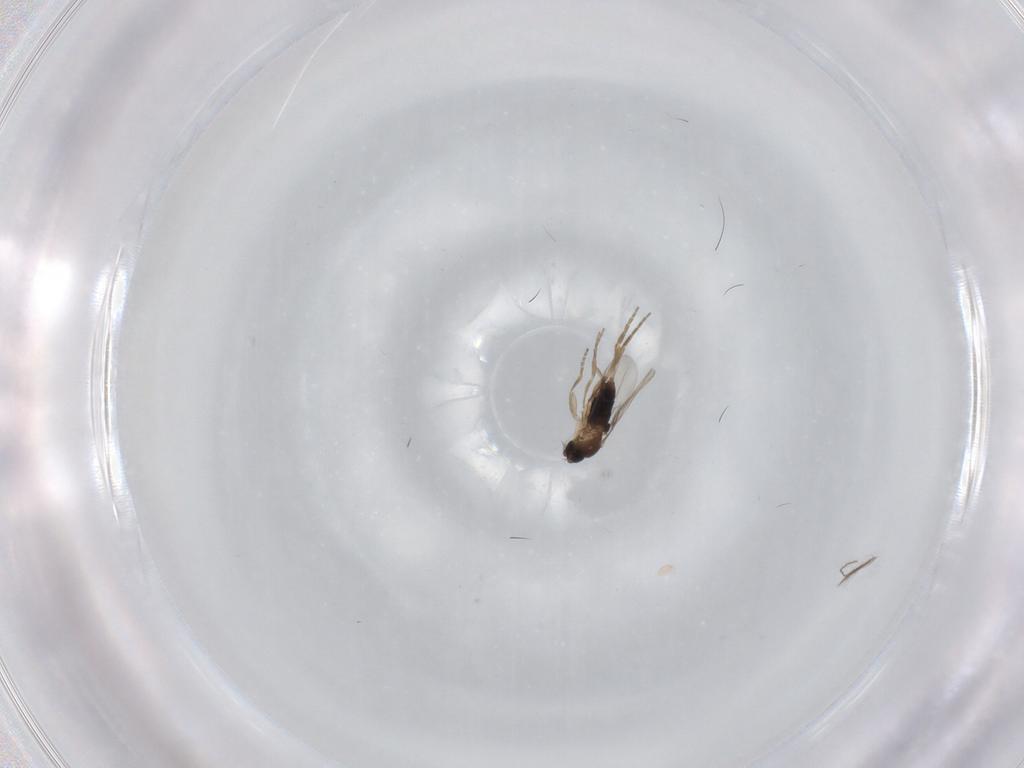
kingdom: Animalia
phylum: Arthropoda
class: Insecta
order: Diptera
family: Phoridae
